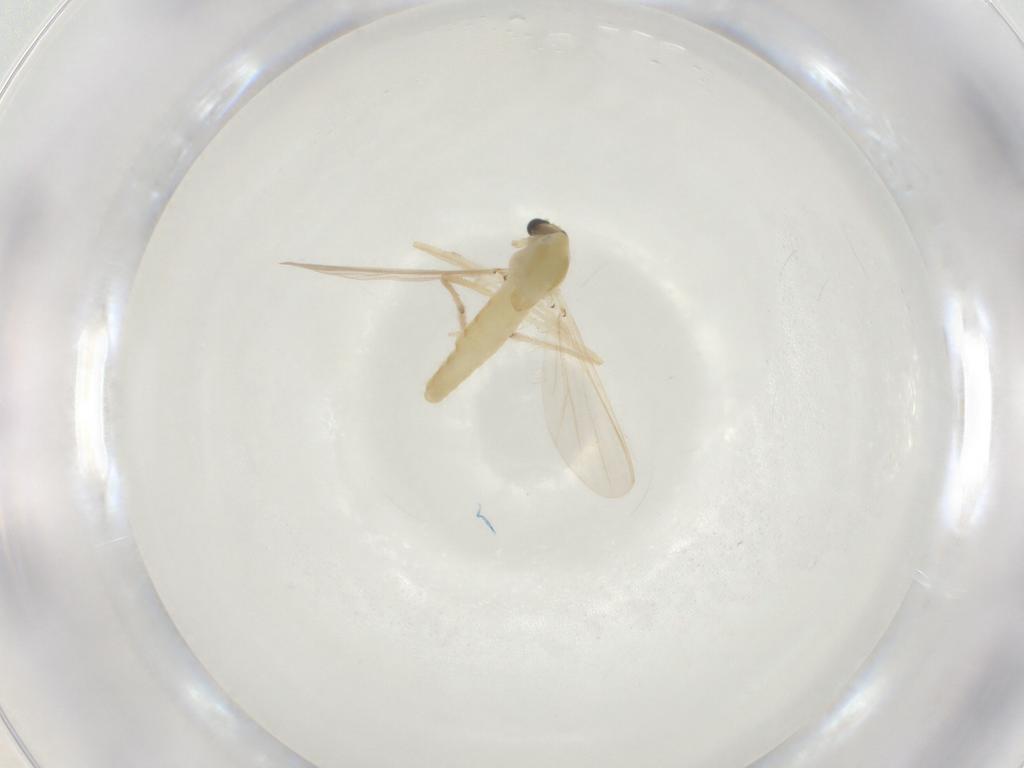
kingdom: Animalia
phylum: Arthropoda
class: Insecta
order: Diptera
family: Chironomidae
